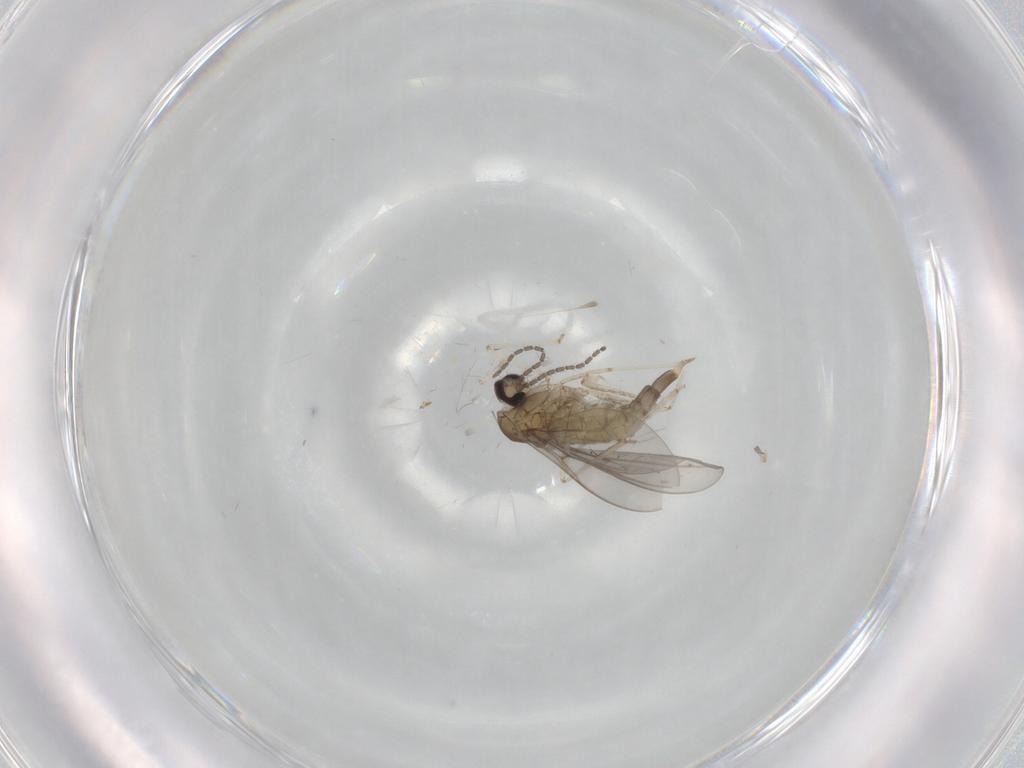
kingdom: Animalia
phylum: Arthropoda
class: Insecta
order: Diptera
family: Cecidomyiidae
